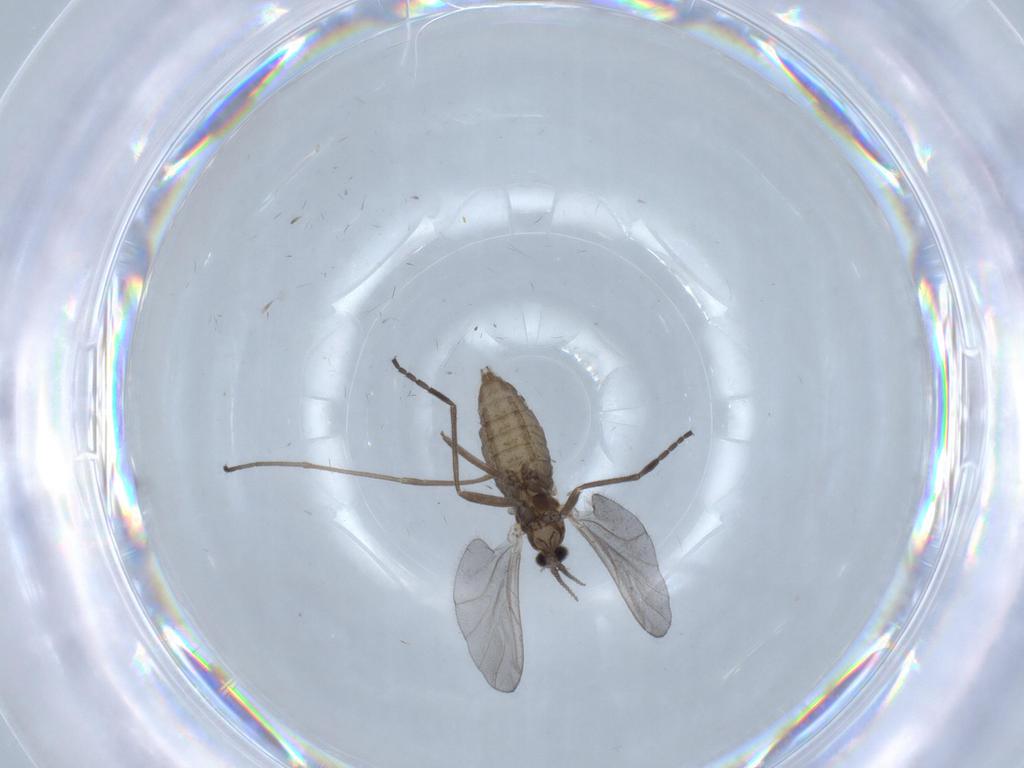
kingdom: Animalia
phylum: Arthropoda
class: Insecta
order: Diptera
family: Cecidomyiidae
